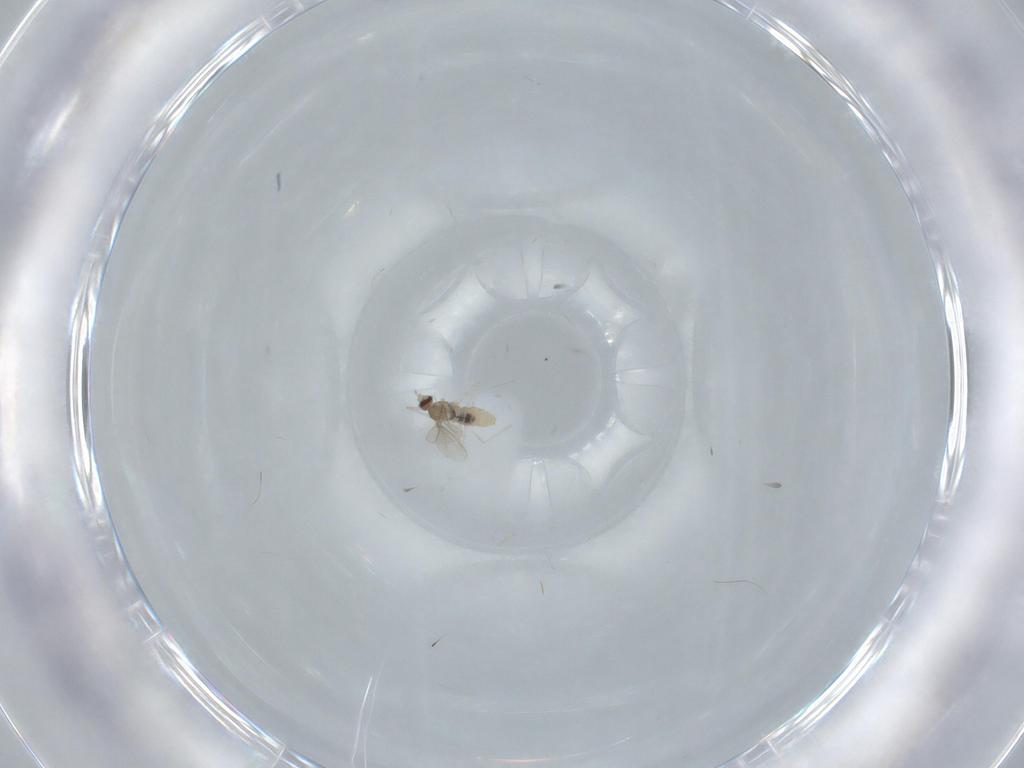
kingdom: Animalia
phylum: Arthropoda
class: Insecta
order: Diptera
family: Cecidomyiidae
